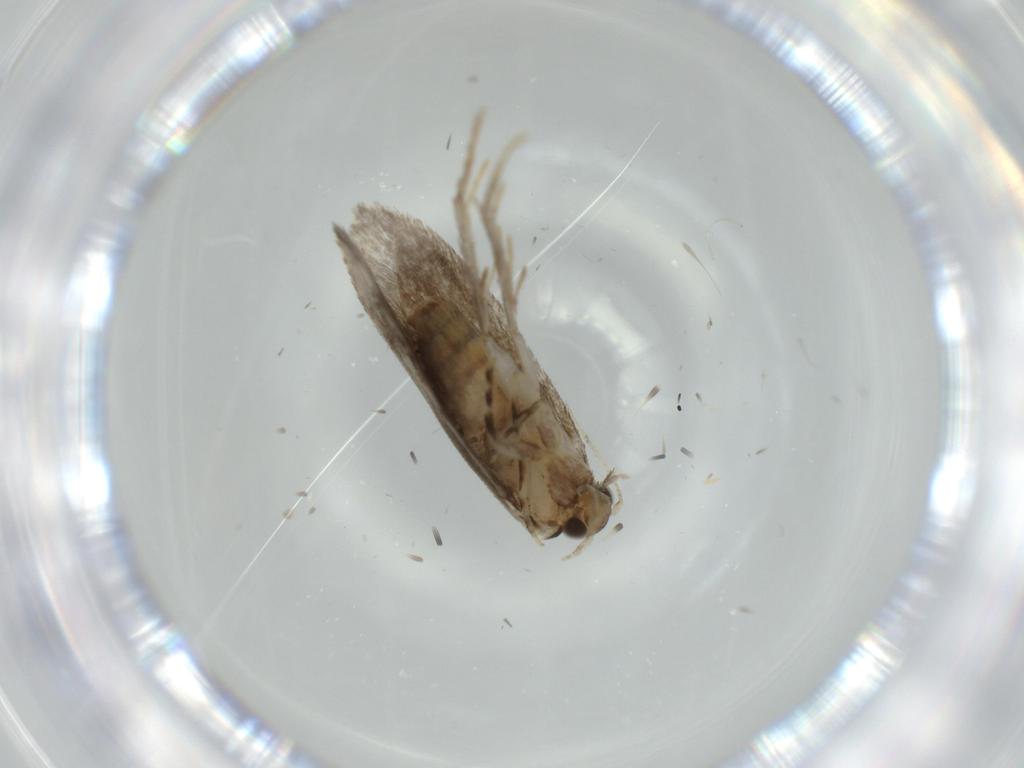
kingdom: Animalia
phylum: Arthropoda
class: Insecta
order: Lepidoptera
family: Tineidae
